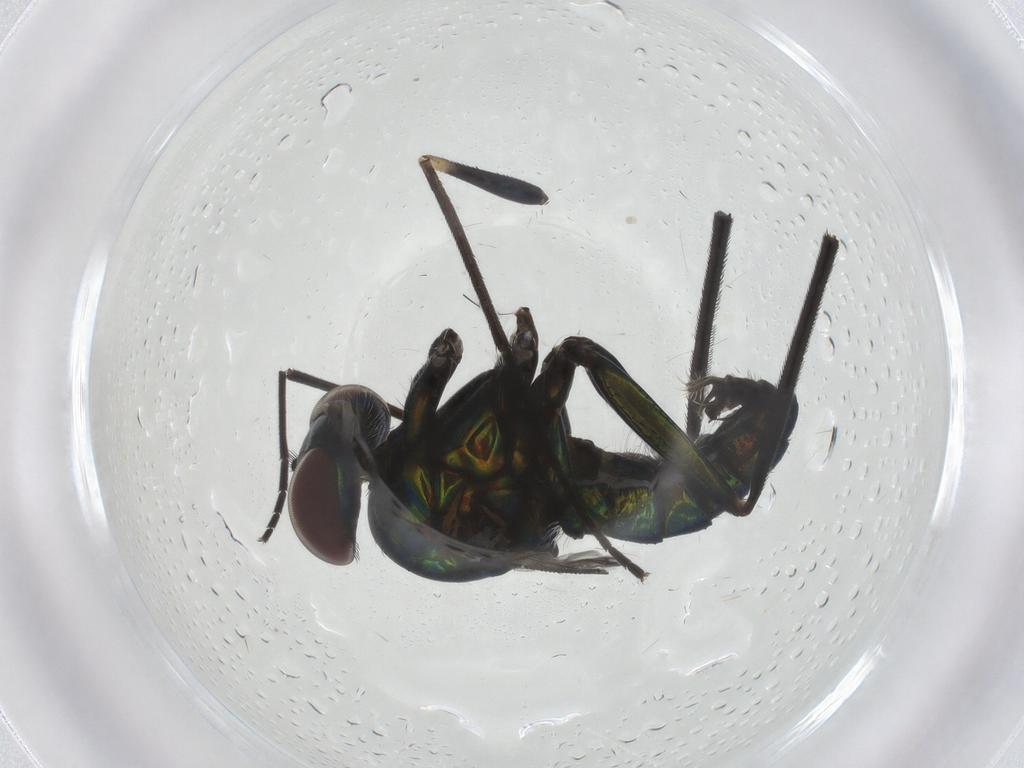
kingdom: Animalia
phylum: Arthropoda
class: Insecta
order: Diptera
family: Dolichopodidae
